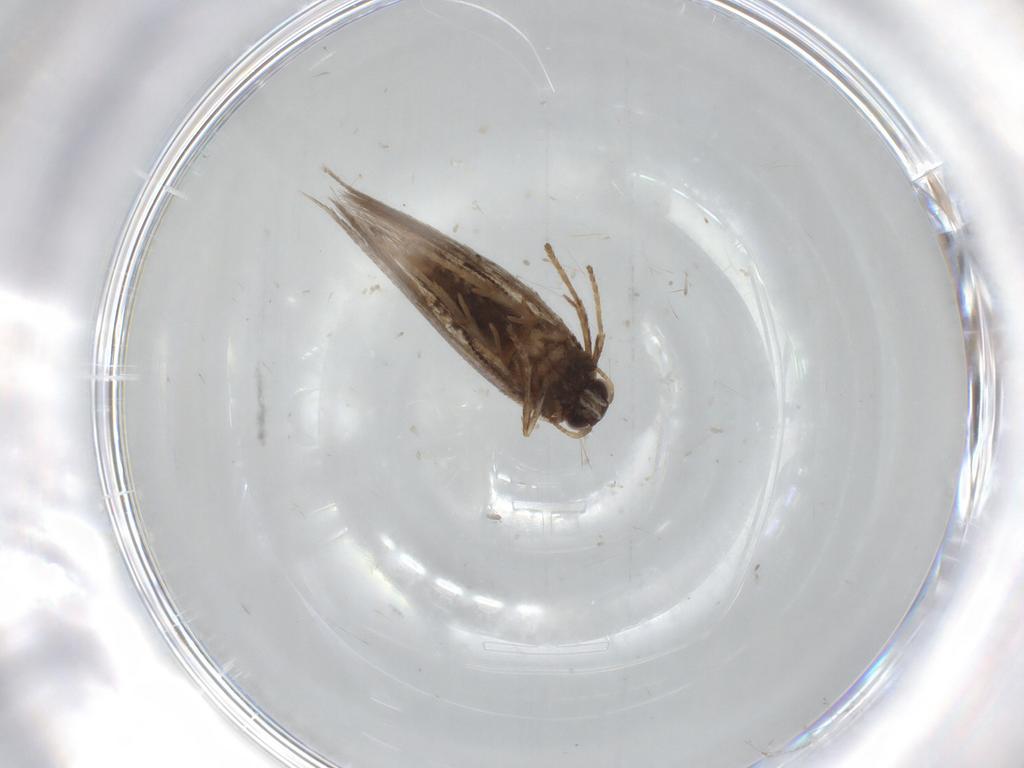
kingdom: Animalia
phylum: Arthropoda
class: Insecta
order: Lepidoptera
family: Nepticulidae
